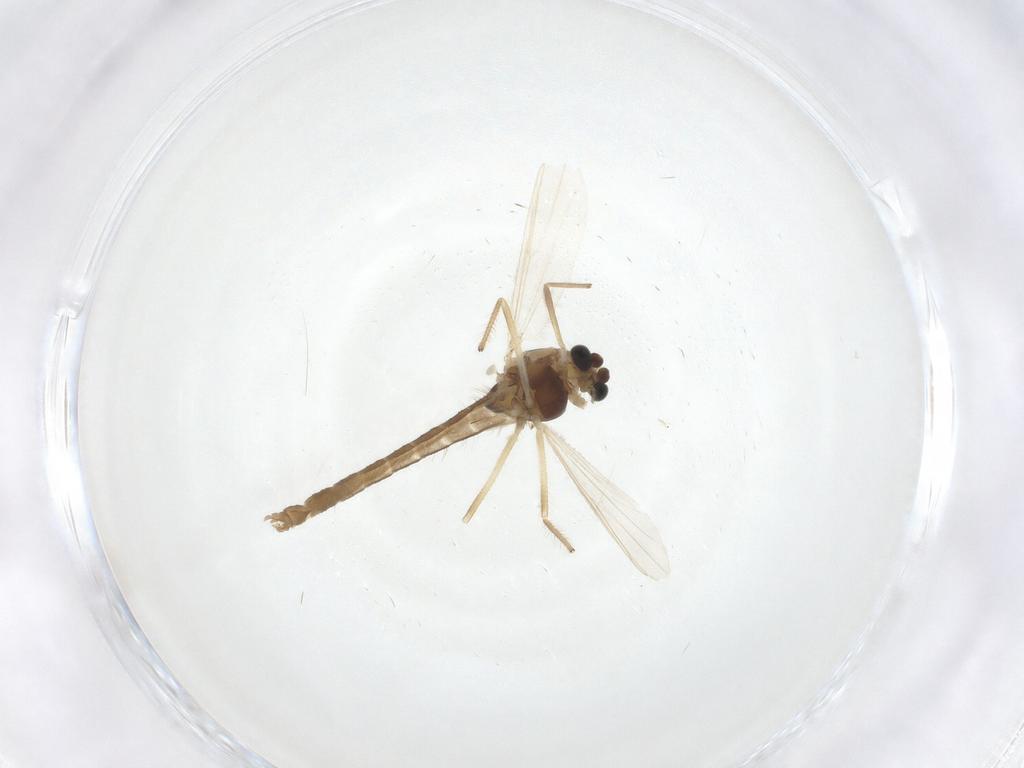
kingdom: Animalia
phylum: Arthropoda
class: Insecta
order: Diptera
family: Chironomidae
